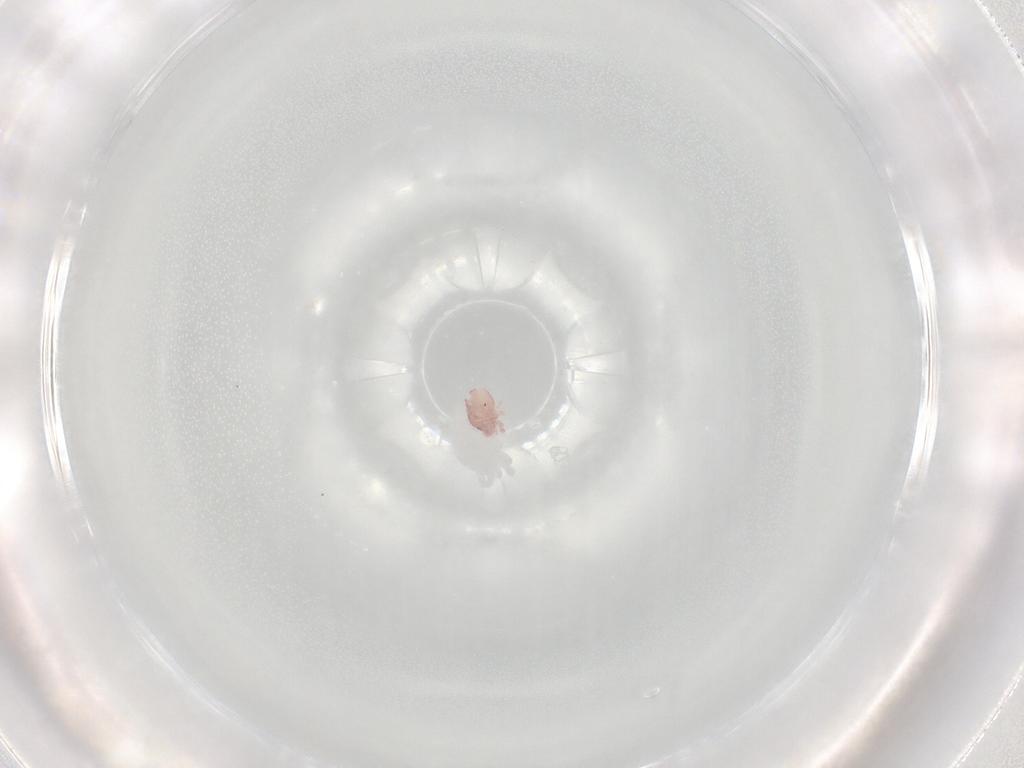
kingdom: Animalia
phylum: Arthropoda
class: Arachnida
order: Sarcoptiformes
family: Alycidae
